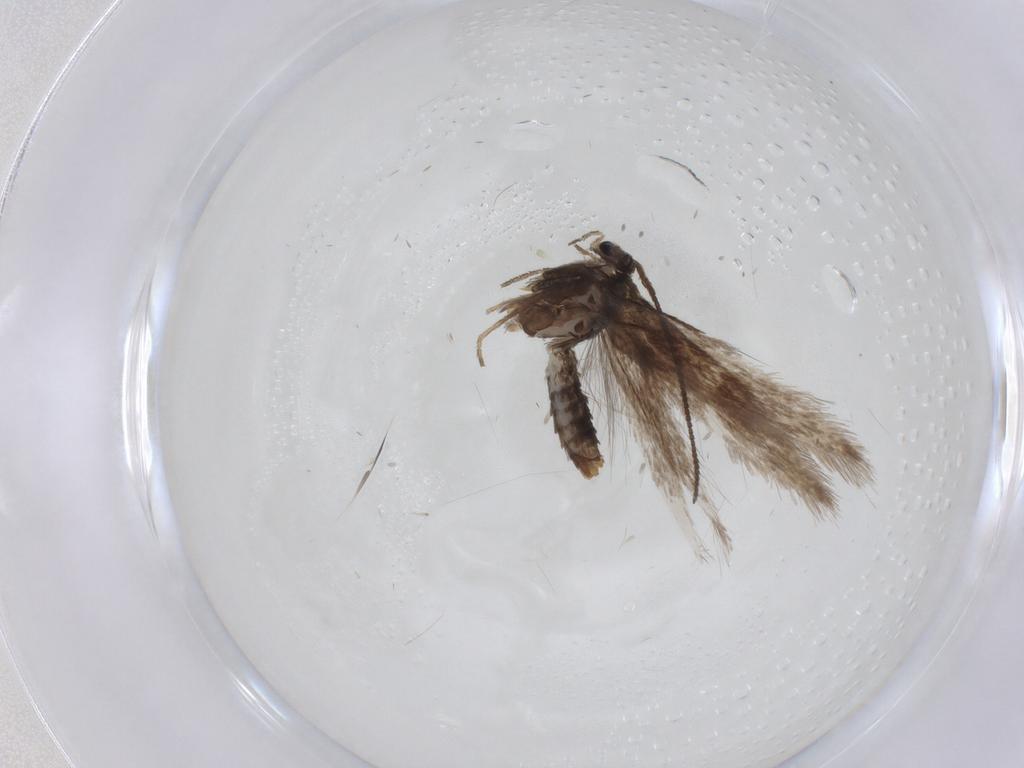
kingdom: Animalia
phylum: Arthropoda
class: Insecta
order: Lepidoptera
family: Nepticulidae
